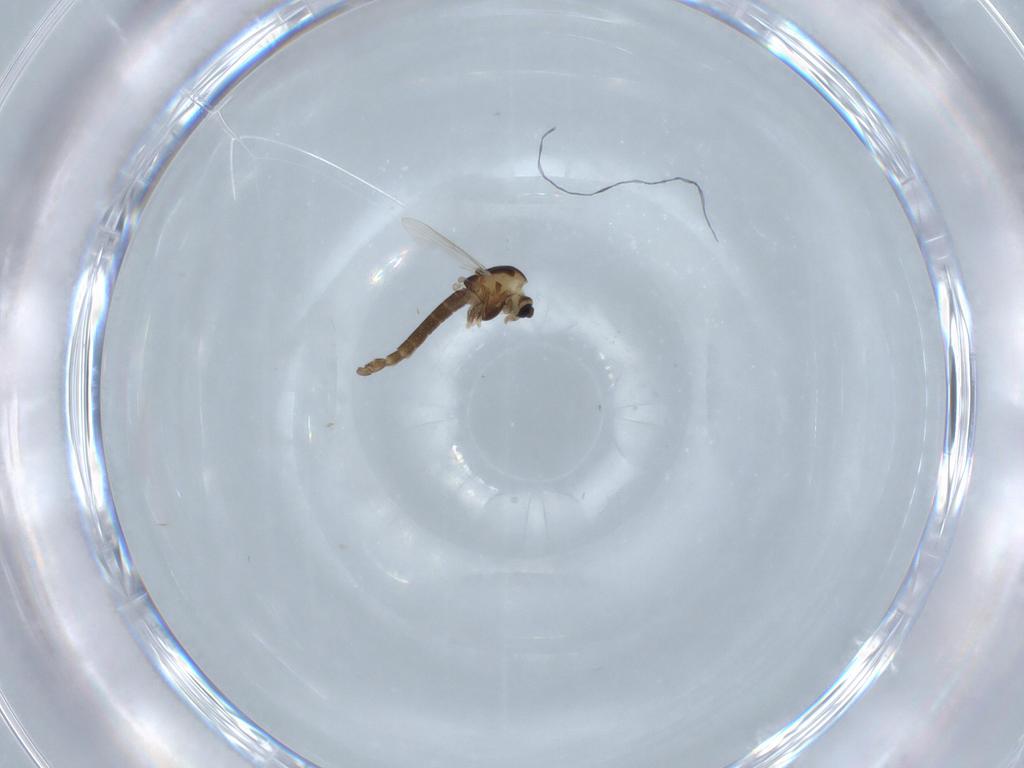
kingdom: Animalia
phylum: Arthropoda
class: Insecta
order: Diptera
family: Chironomidae
